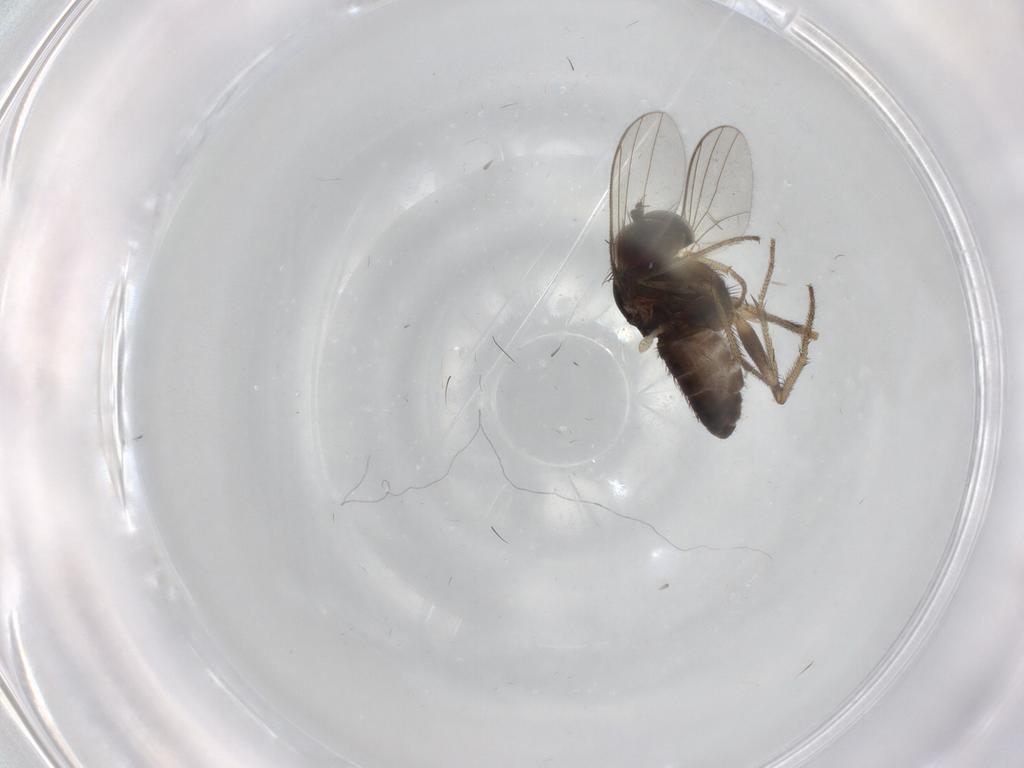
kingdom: Animalia
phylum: Arthropoda
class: Insecta
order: Diptera
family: Dolichopodidae
